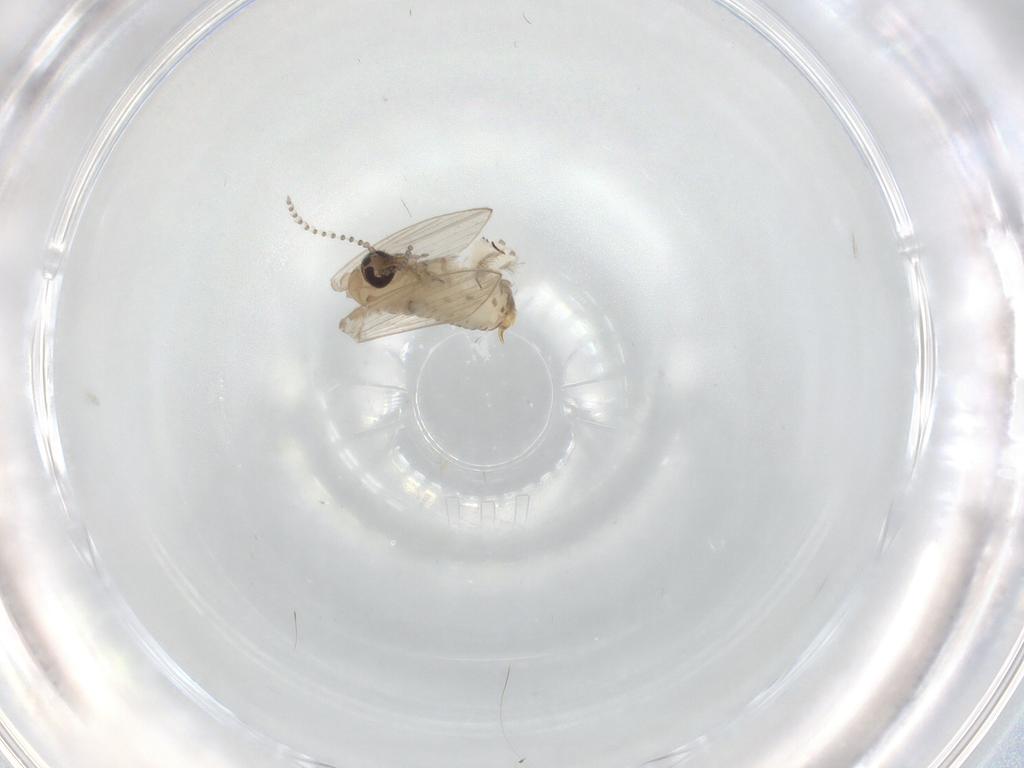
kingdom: Animalia
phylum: Arthropoda
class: Insecta
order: Diptera
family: Psychodidae
